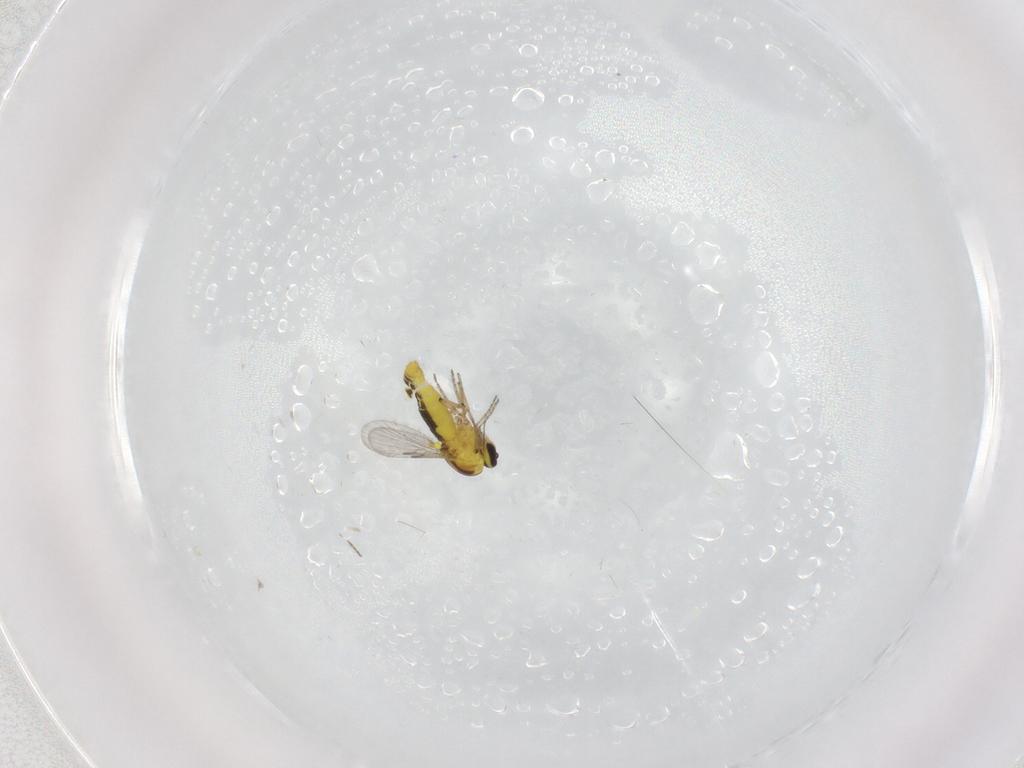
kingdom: Animalia
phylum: Arthropoda
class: Insecta
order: Diptera
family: Ceratopogonidae
